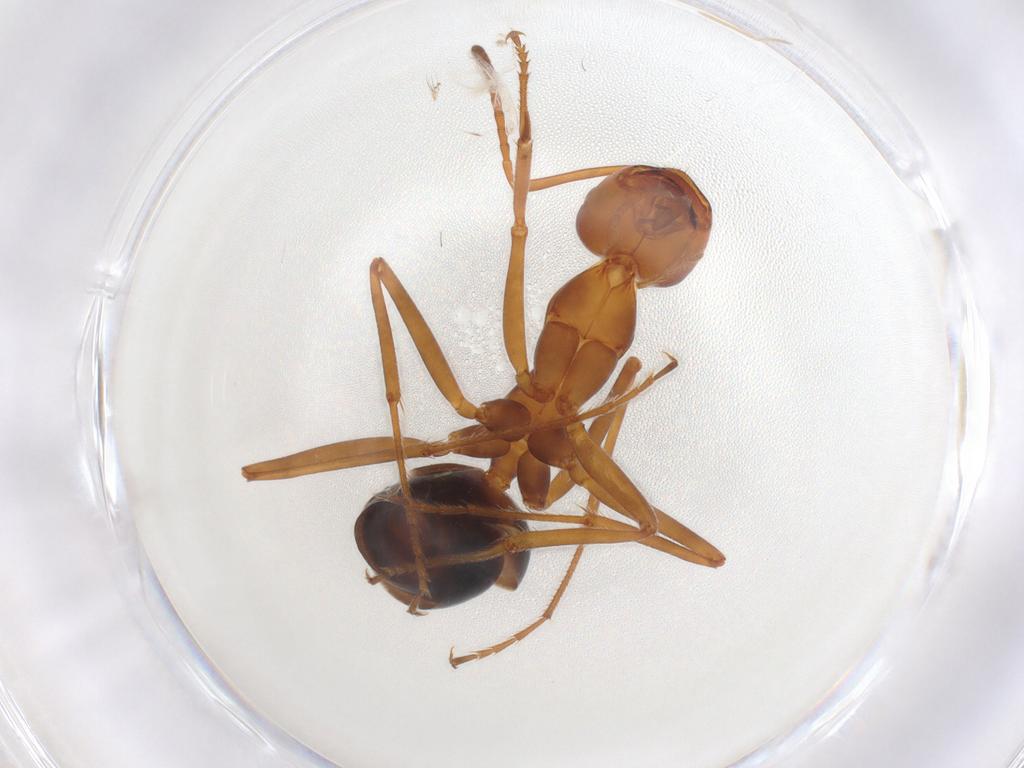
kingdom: Animalia
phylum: Arthropoda
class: Insecta
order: Hymenoptera
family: Formicidae
